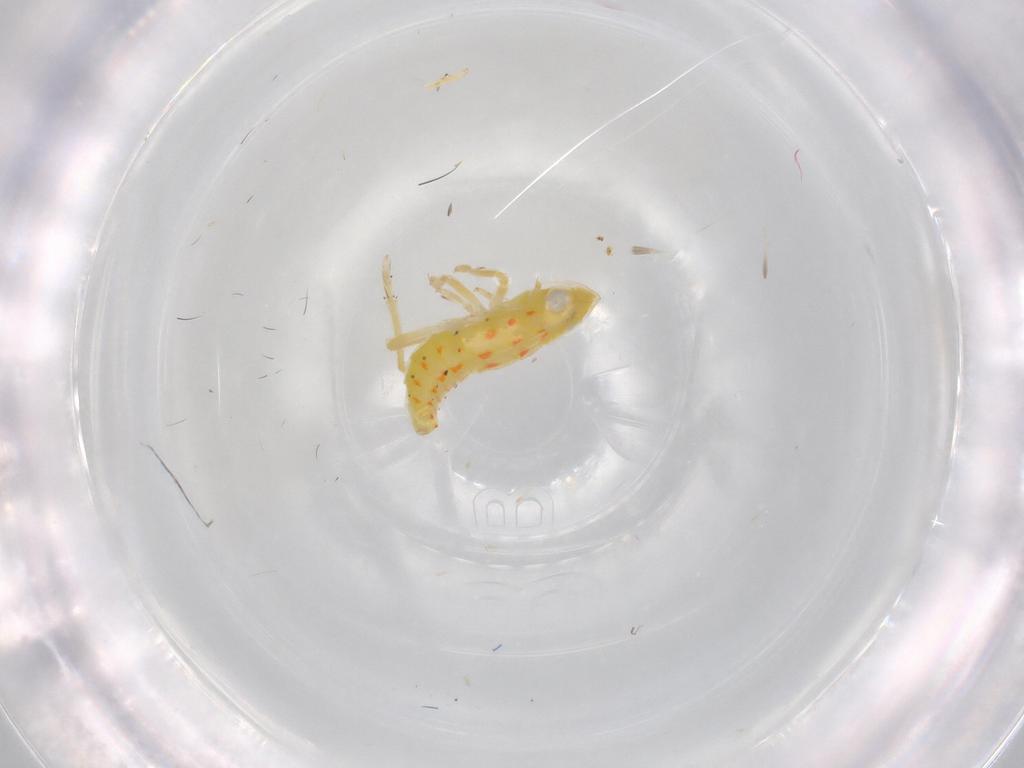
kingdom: Animalia
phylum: Arthropoda
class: Insecta
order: Hemiptera
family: Tropiduchidae
